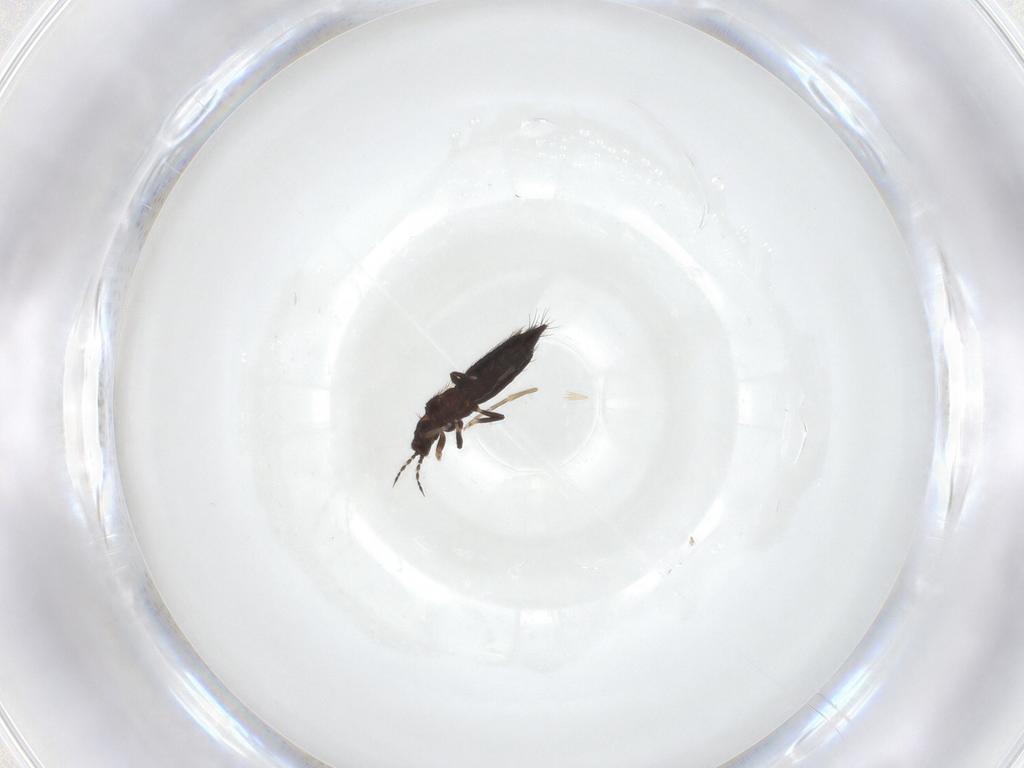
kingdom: Animalia
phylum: Arthropoda
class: Insecta
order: Thysanoptera
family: Thripidae
